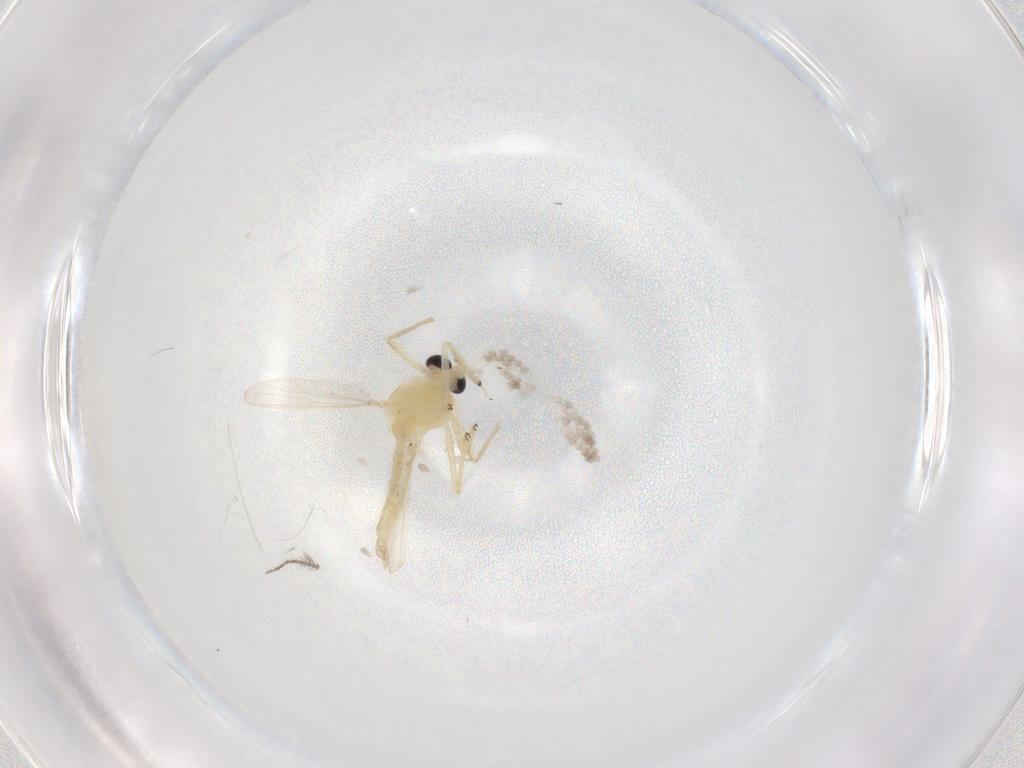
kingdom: Animalia
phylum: Arthropoda
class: Insecta
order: Diptera
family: Chironomidae
